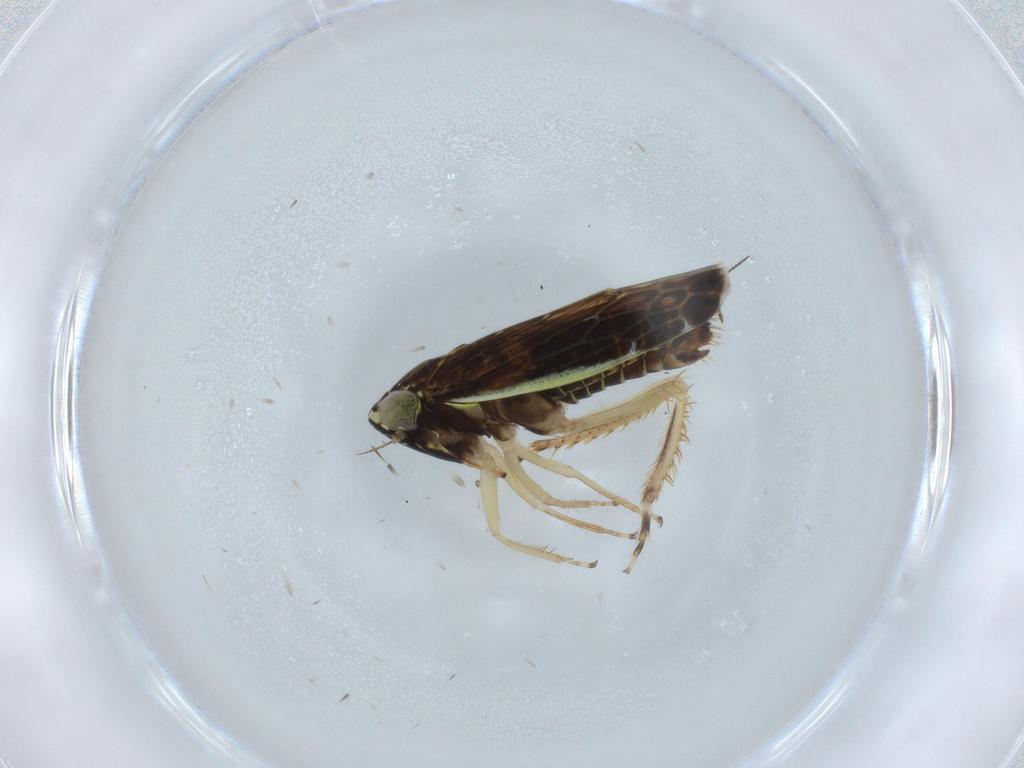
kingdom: Animalia
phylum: Arthropoda
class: Insecta
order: Hemiptera
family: Cicadellidae
